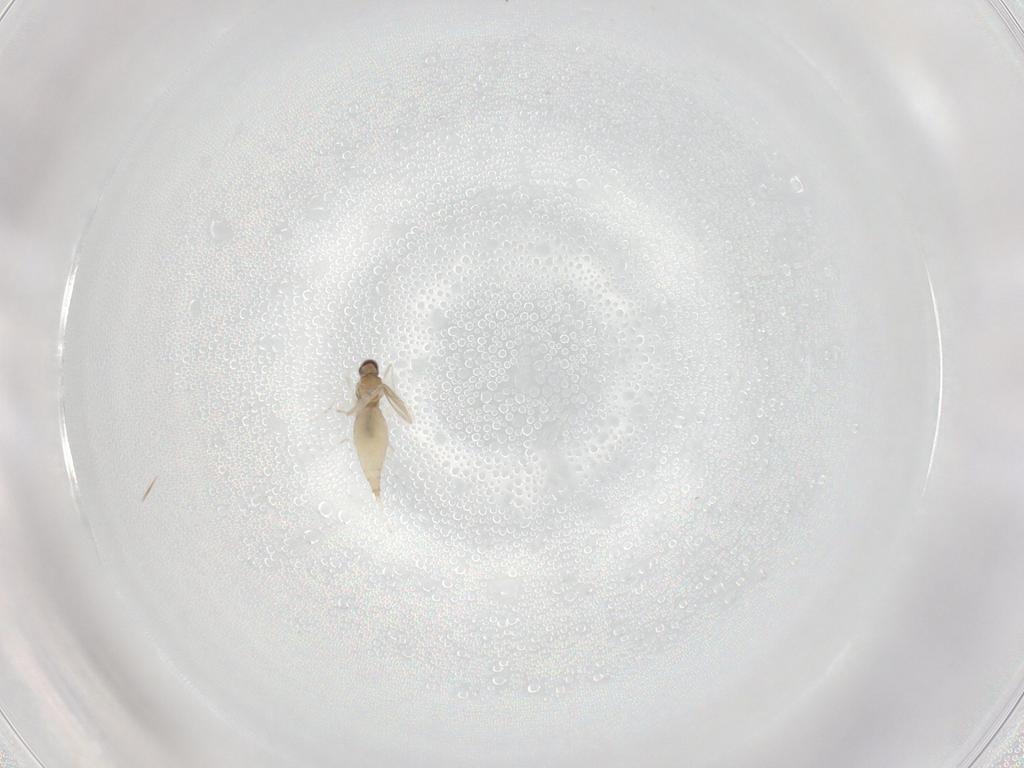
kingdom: Animalia
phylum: Arthropoda
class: Insecta
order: Diptera
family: Cecidomyiidae
